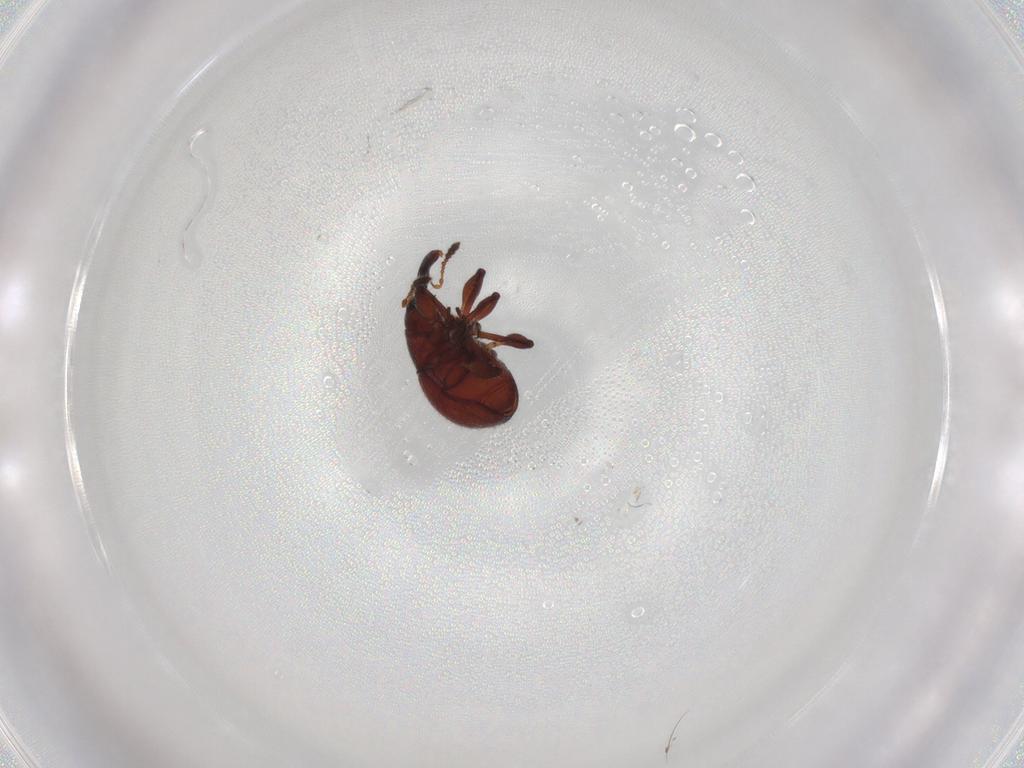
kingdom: Animalia
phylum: Arthropoda
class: Insecta
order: Coleoptera
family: Brentidae
